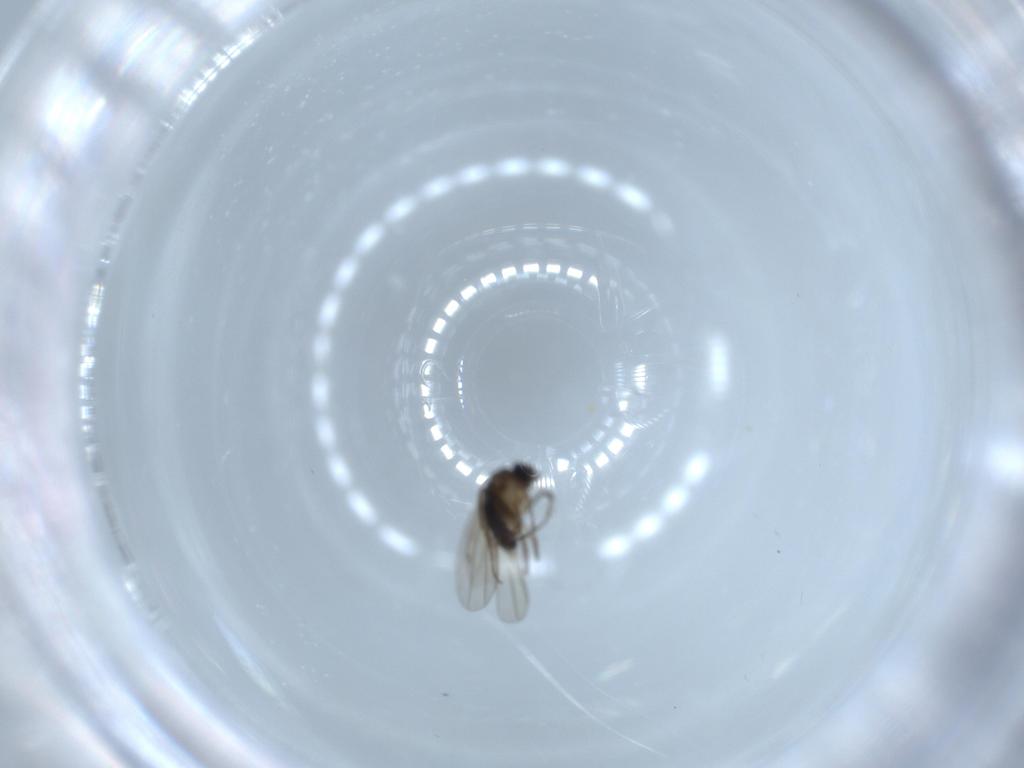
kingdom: Animalia
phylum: Arthropoda
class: Insecta
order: Diptera
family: Phoridae
